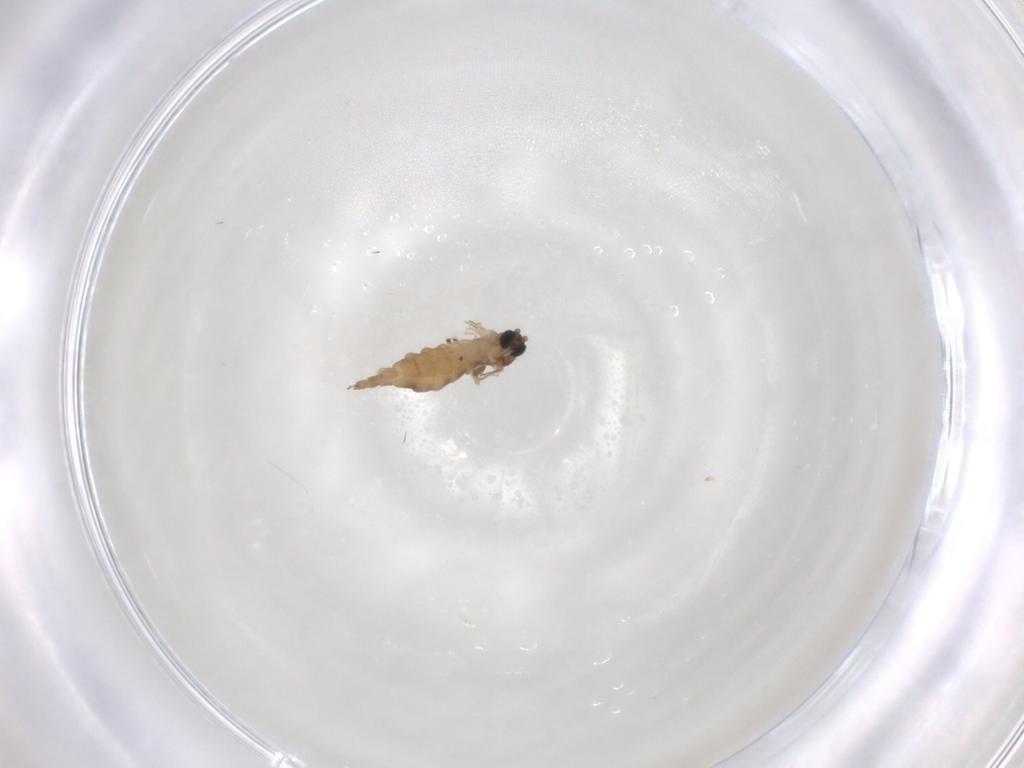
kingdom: Animalia
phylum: Arthropoda
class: Insecta
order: Diptera
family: Sciaridae
